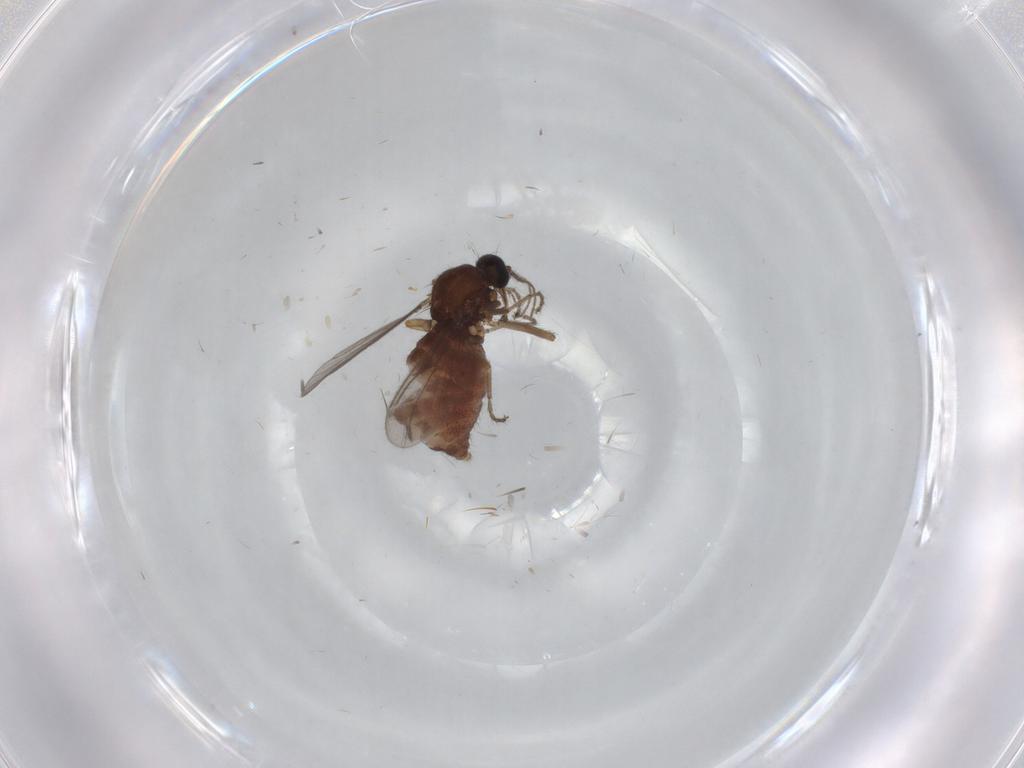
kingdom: Animalia
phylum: Arthropoda
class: Insecta
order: Diptera
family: Ceratopogonidae
